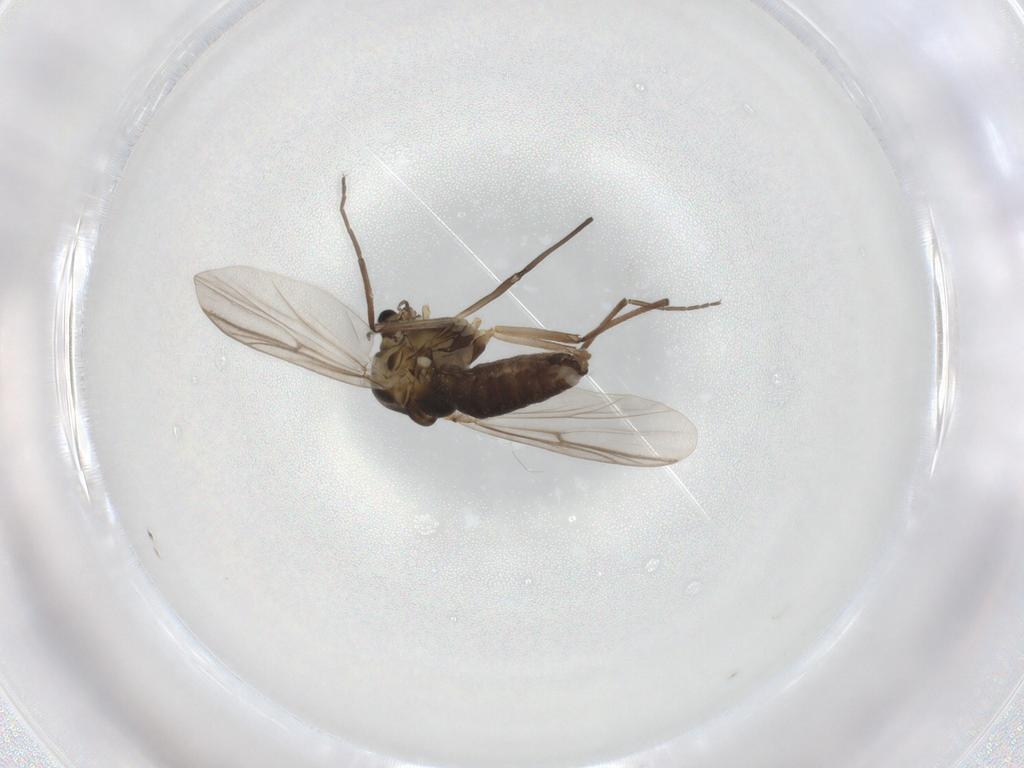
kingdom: Animalia
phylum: Arthropoda
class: Insecta
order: Diptera
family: Chironomidae
